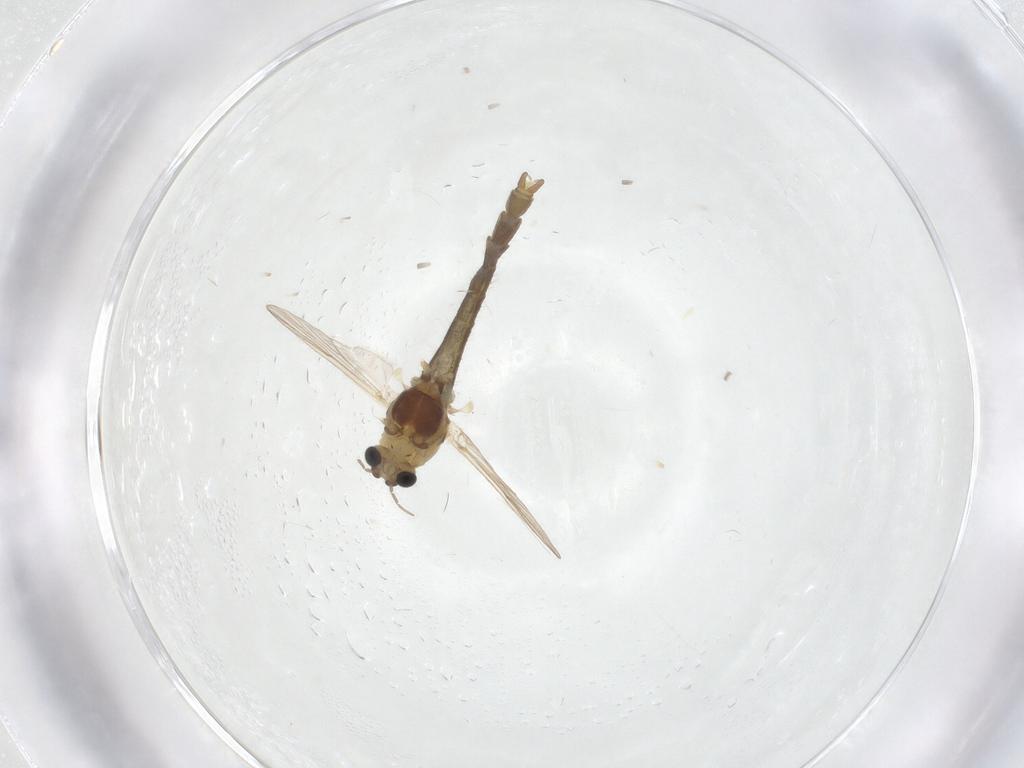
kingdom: Animalia
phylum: Arthropoda
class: Insecta
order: Diptera
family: Chironomidae
